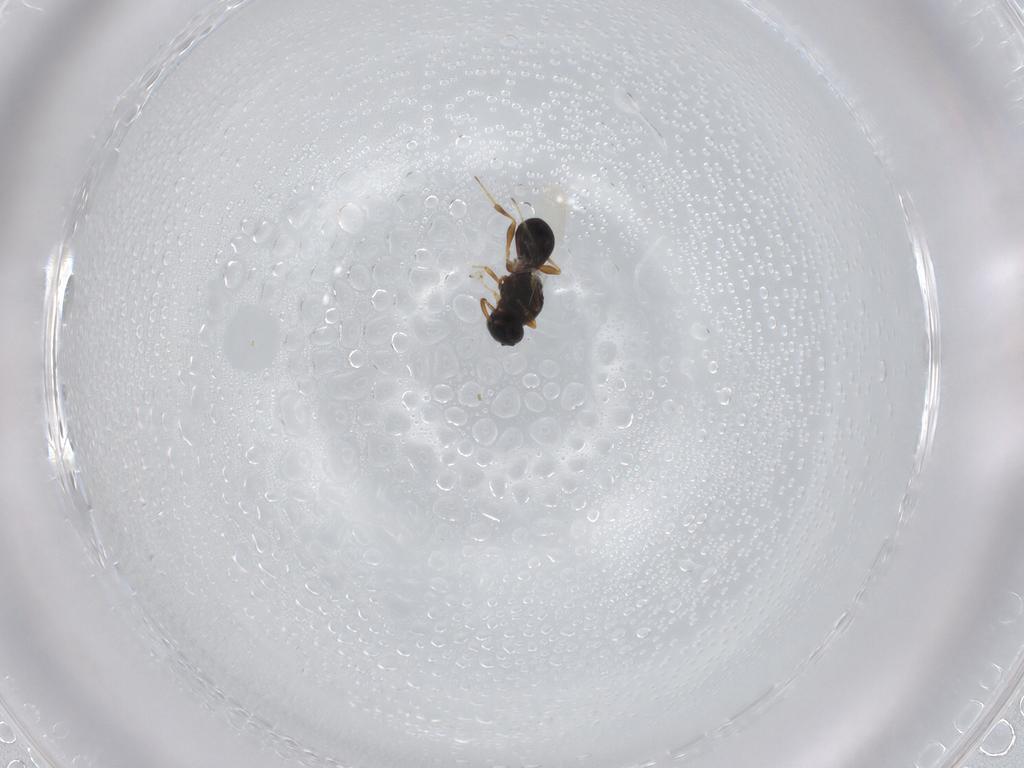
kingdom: Animalia
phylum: Arthropoda
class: Insecta
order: Hymenoptera
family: Platygastridae
